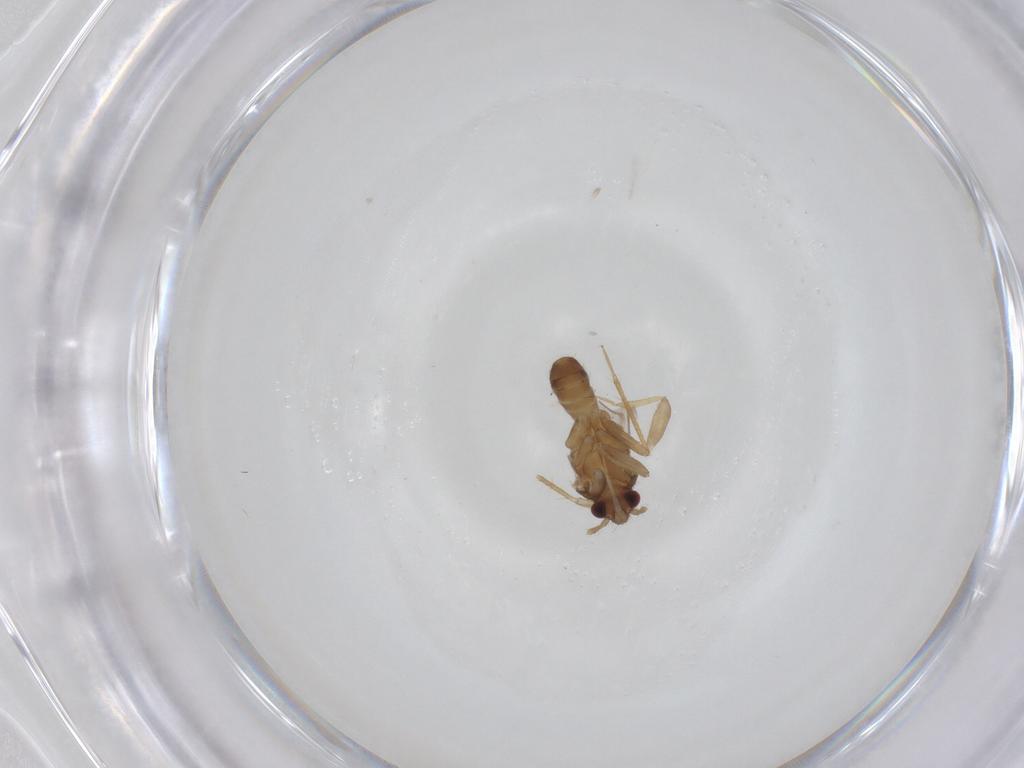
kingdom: Animalia
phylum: Arthropoda
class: Insecta
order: Hemiptera
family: Ceratocombidae
